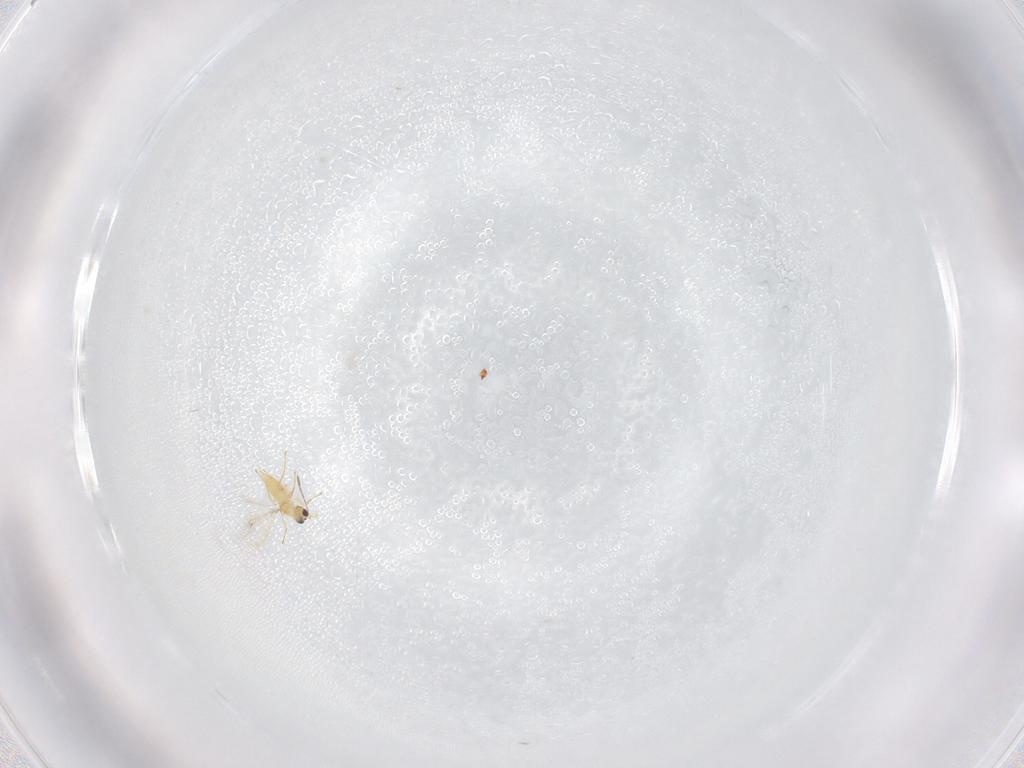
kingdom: Animalia
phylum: Arthropoda
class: Insecta
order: Hymenoptera
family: Mymaridae
